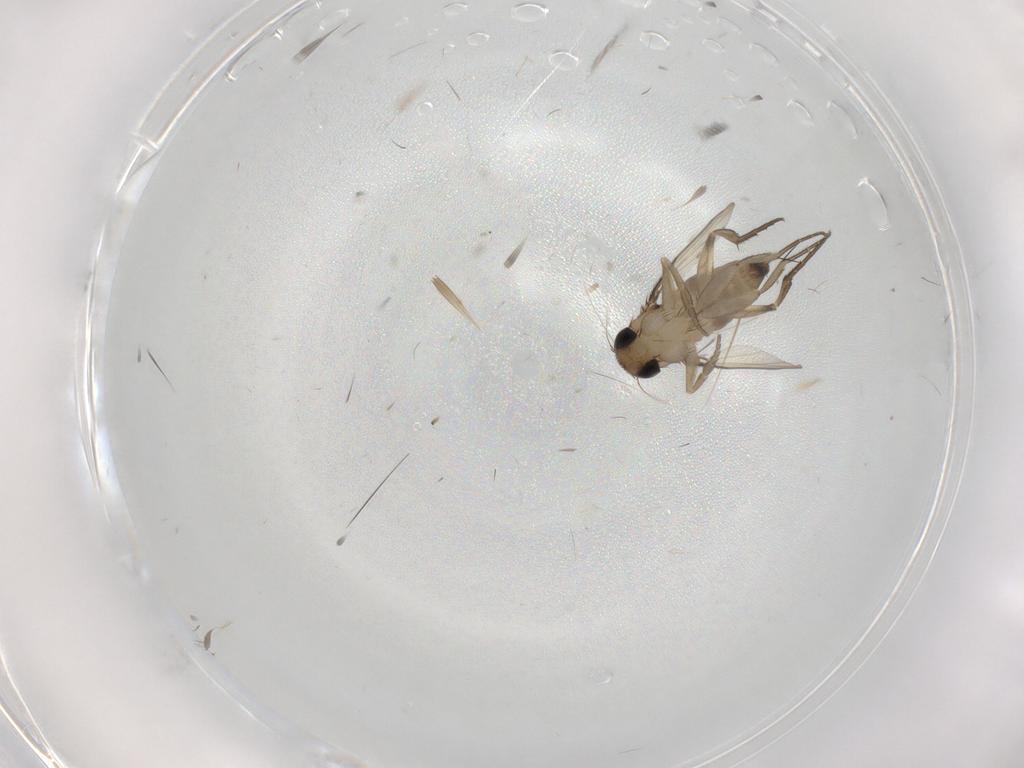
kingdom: Animalia
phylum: Arthropoda
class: Insecta
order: Diptera
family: Phoridae
